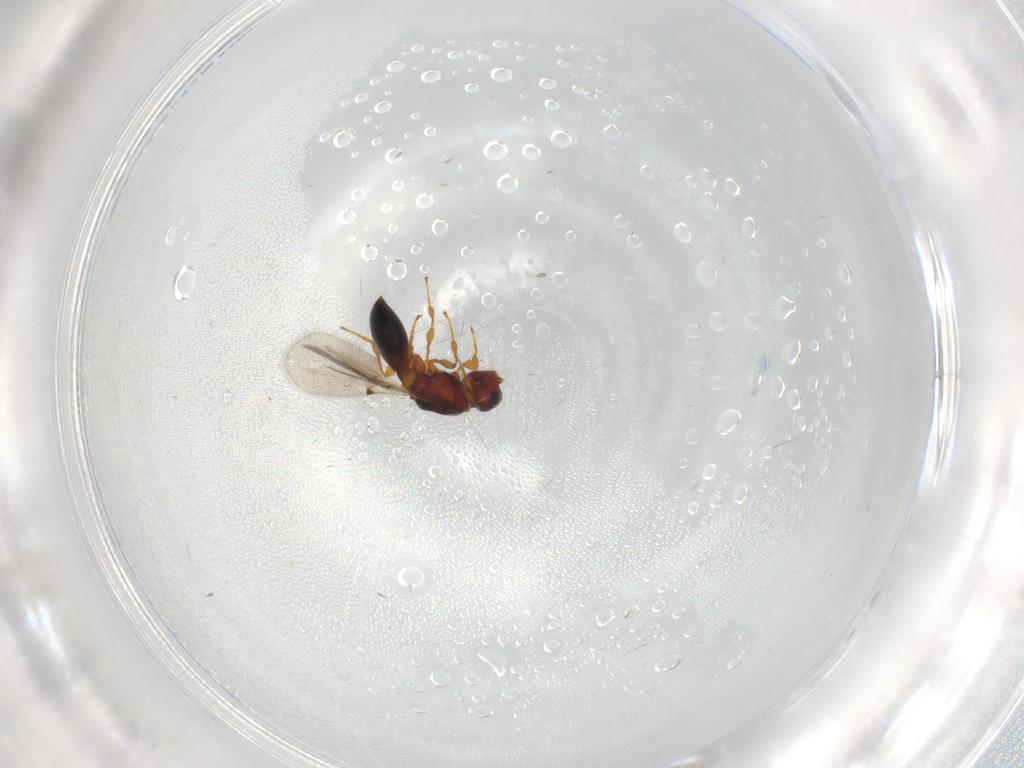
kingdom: Animalia
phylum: Arthropoda
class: Insecta
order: Hymenoptera
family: Diapriidae
